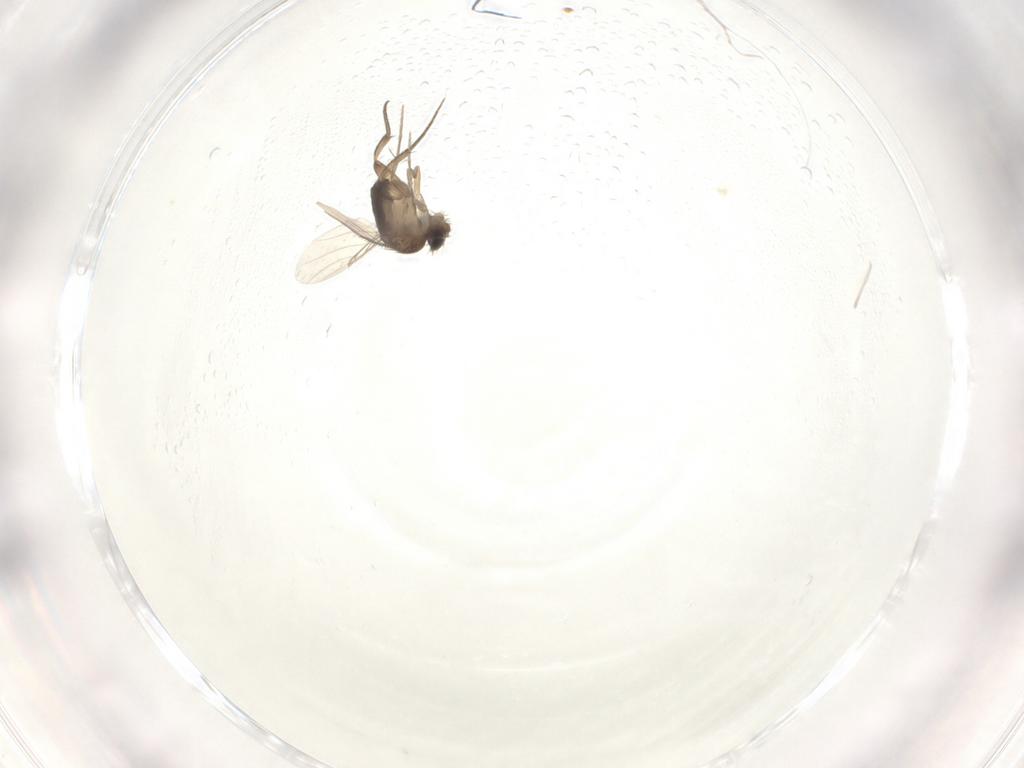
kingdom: Animalia
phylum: Arthropoda
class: Insecta
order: Diptera
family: Phoridae
